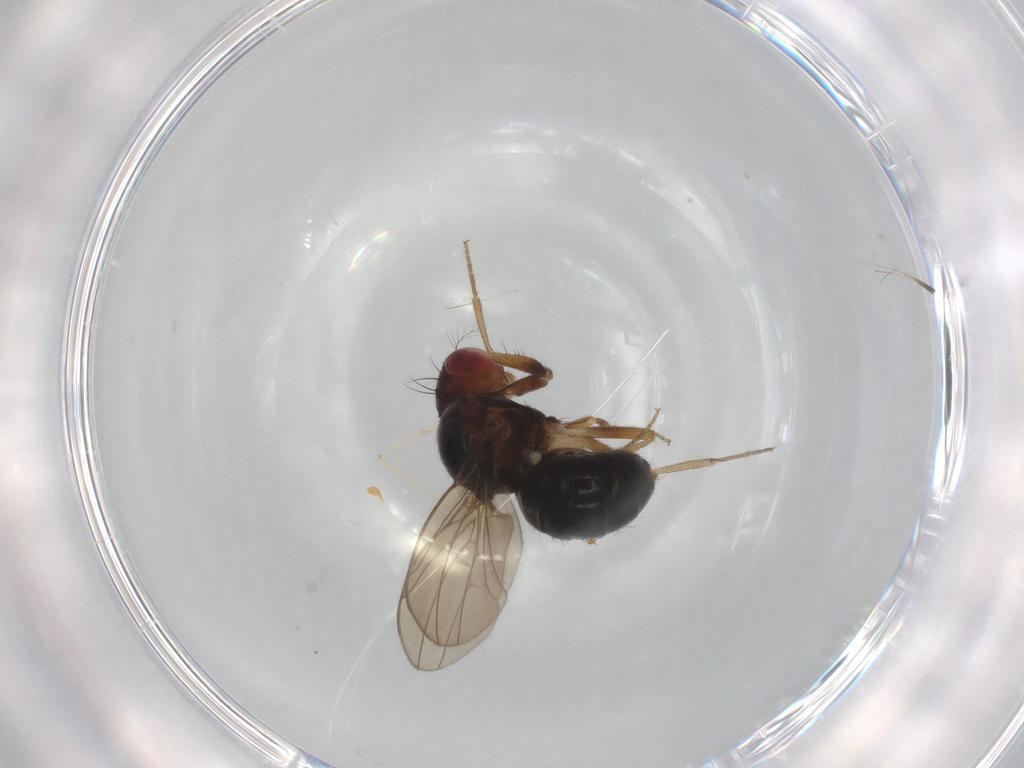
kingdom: Animalia
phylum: Arthropoda
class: Insecta
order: Diptera
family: Drosophilidae
